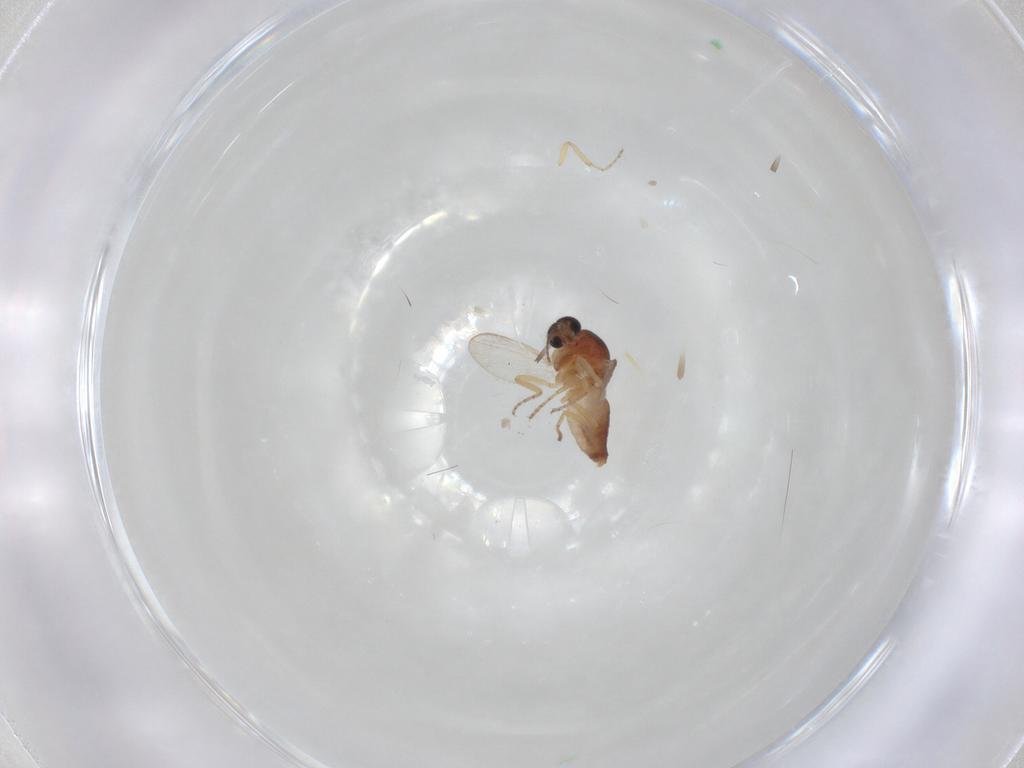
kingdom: Animalia
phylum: Arthropoda
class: Insecta
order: Diptera
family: Ceratopogonidae
